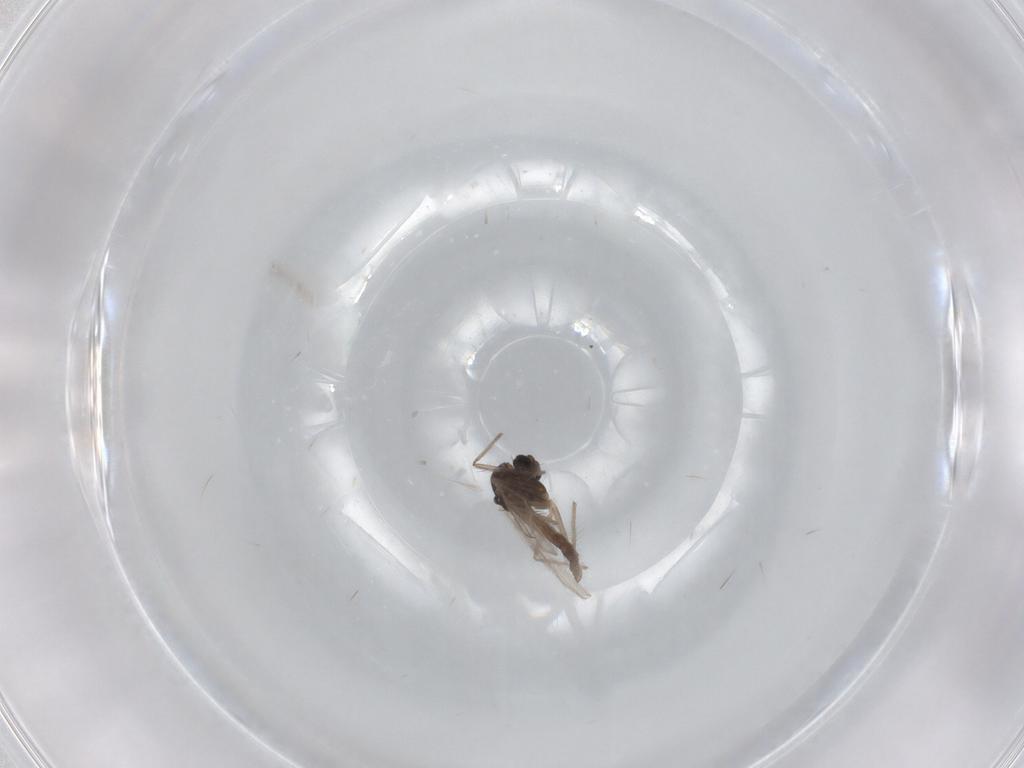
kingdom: Animalia
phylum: Arthropoda
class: Insecta
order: Diptera
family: Chironomidae
